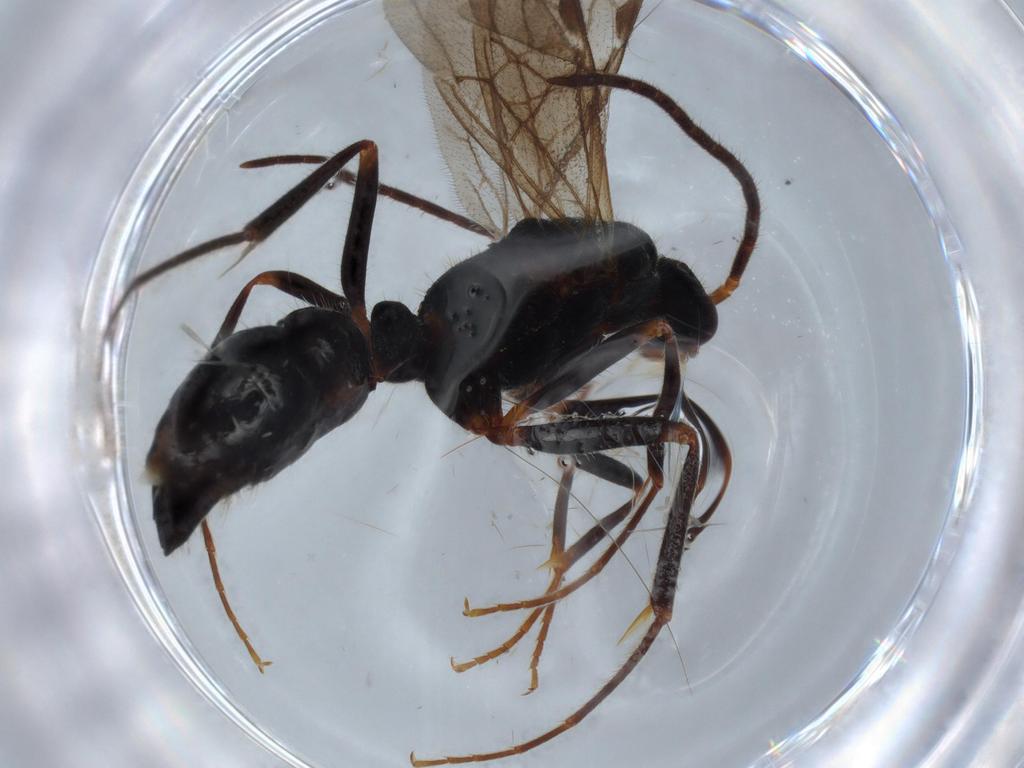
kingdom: Animalia
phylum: Arthropoda
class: Insecta
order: Hymenoptera
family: Formicidae
